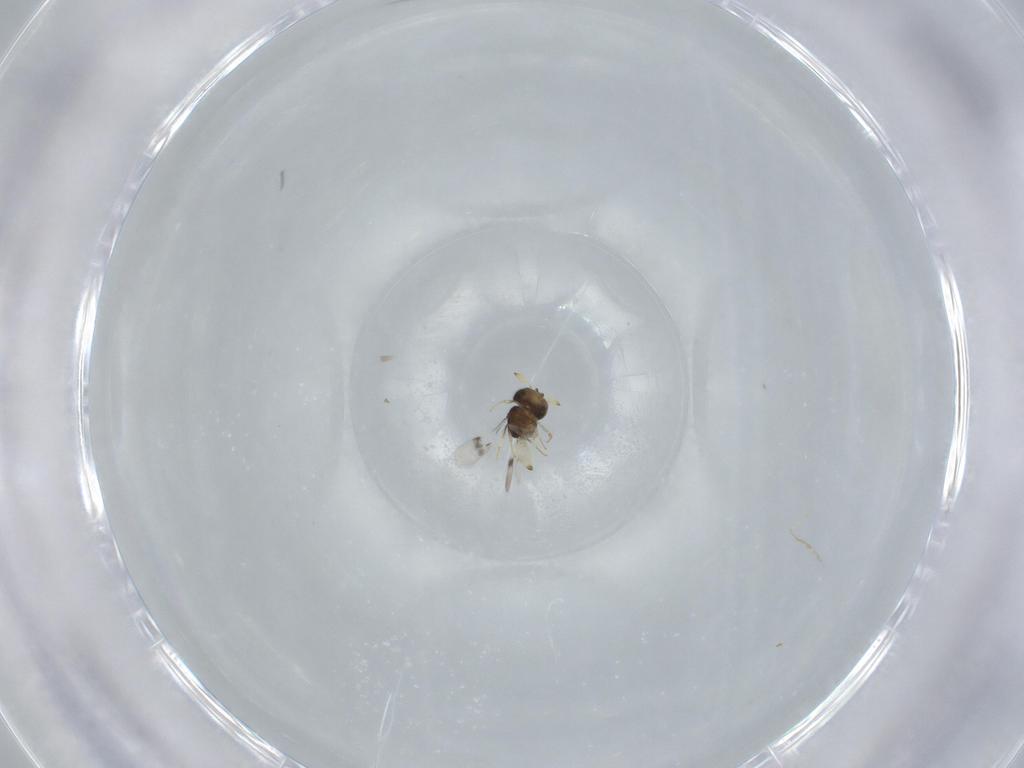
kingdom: Animalia
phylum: Arthropoda
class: Insecta
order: Hymenoptera
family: Scelionidae
